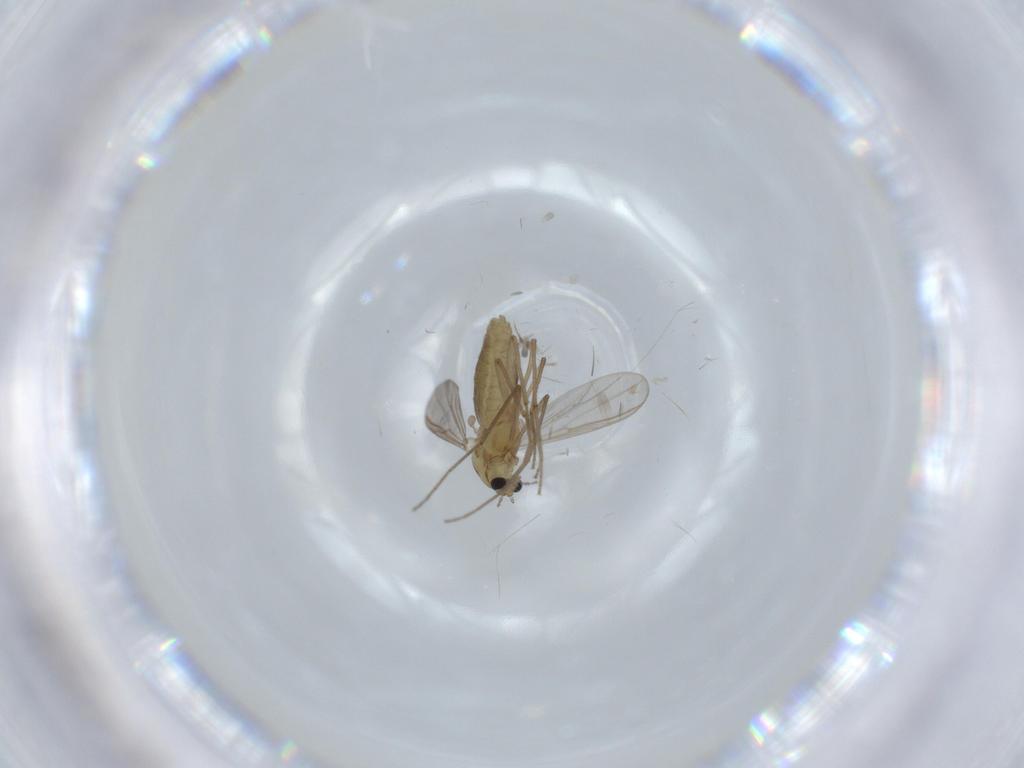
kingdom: Animalia
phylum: Arthropoda
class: Insecta
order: Diptera
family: Chironomidae
